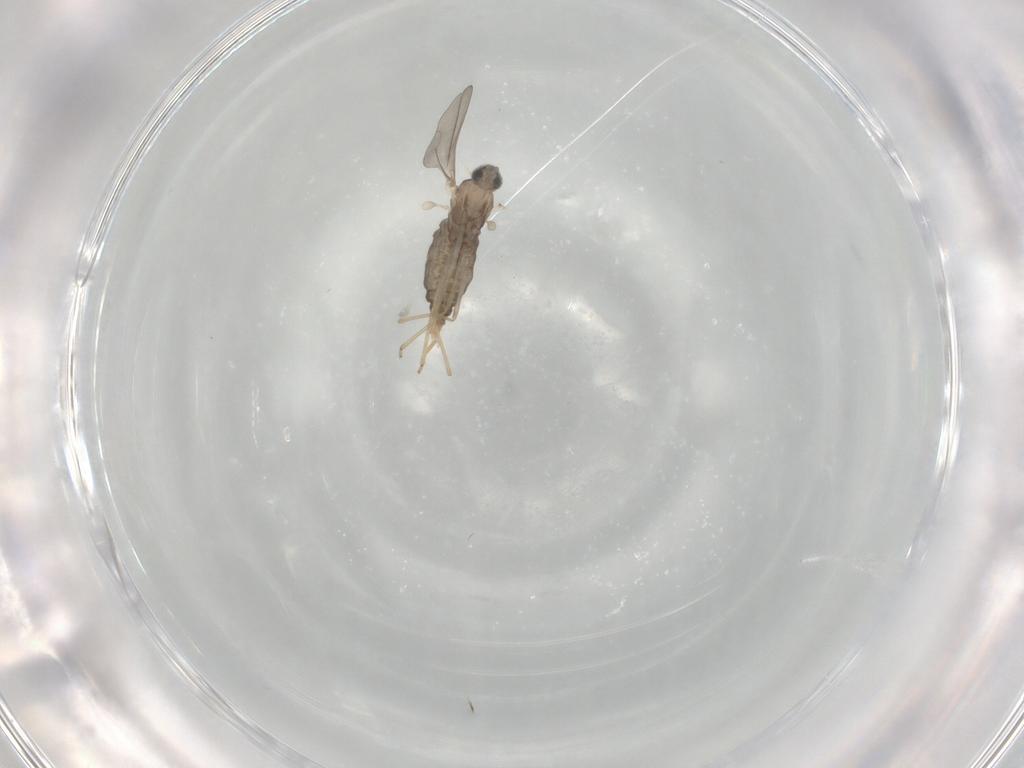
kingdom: Animalia
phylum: Arthropoda
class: Insecta
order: Diptera
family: Cecidomyiidae
